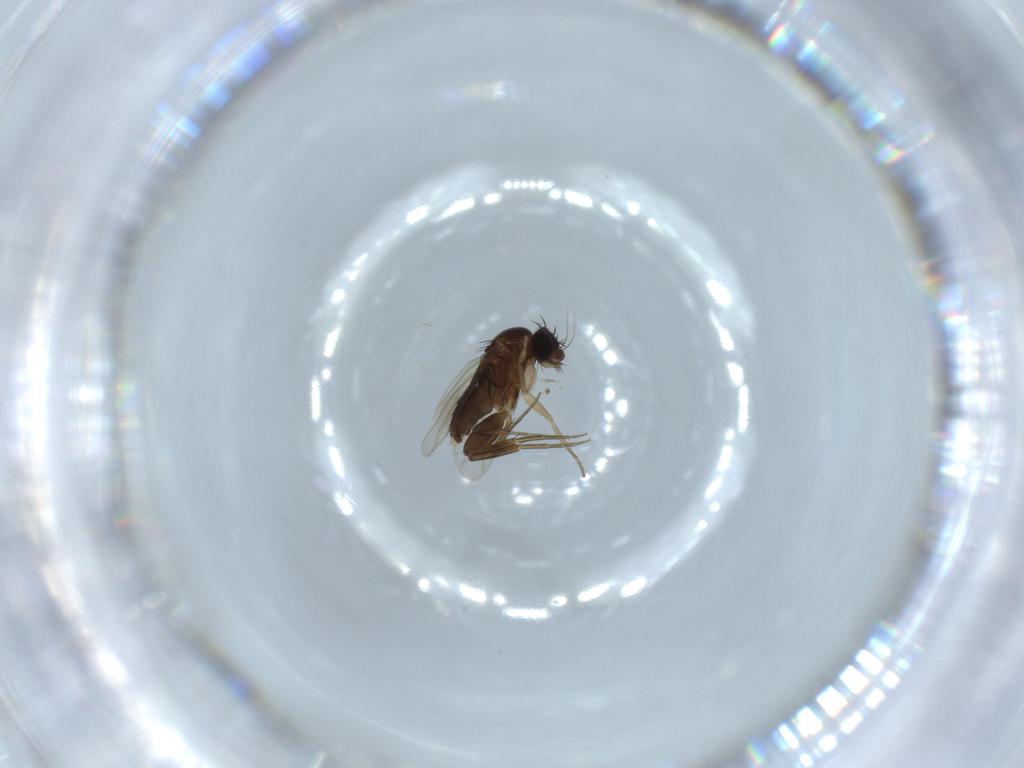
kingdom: Animalia
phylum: Arthropoda
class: Insecta
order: Diptera
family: Phoridae
